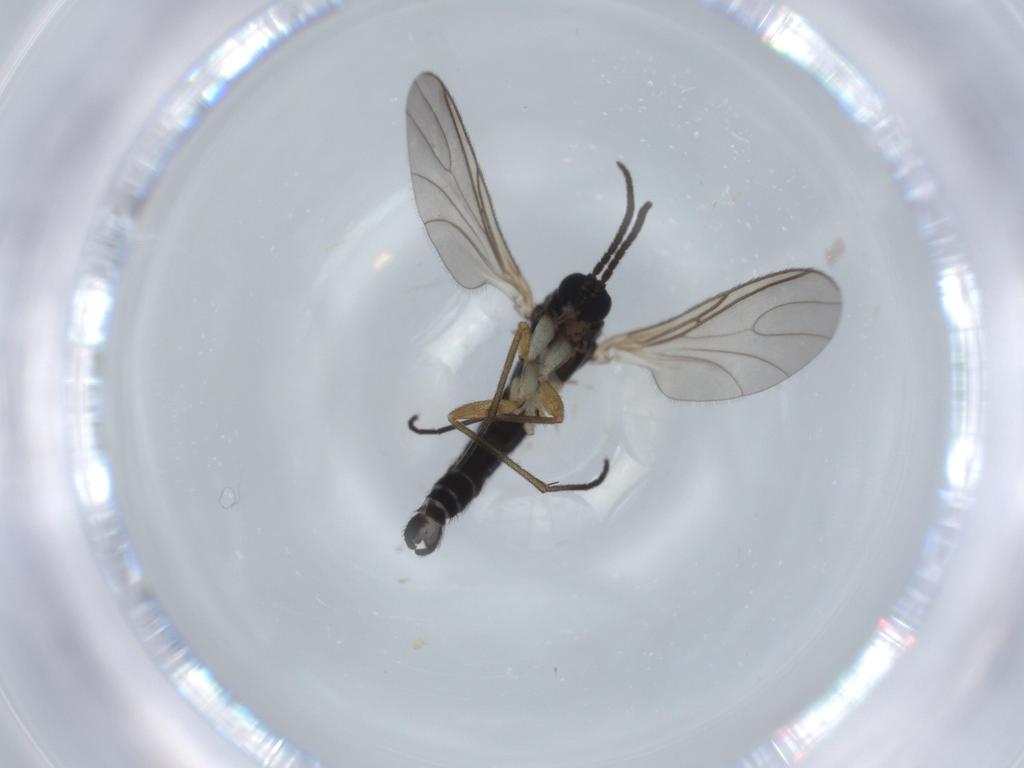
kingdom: Animalia
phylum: Arthropoda
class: Insecta
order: Diptera
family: Sciaridae
